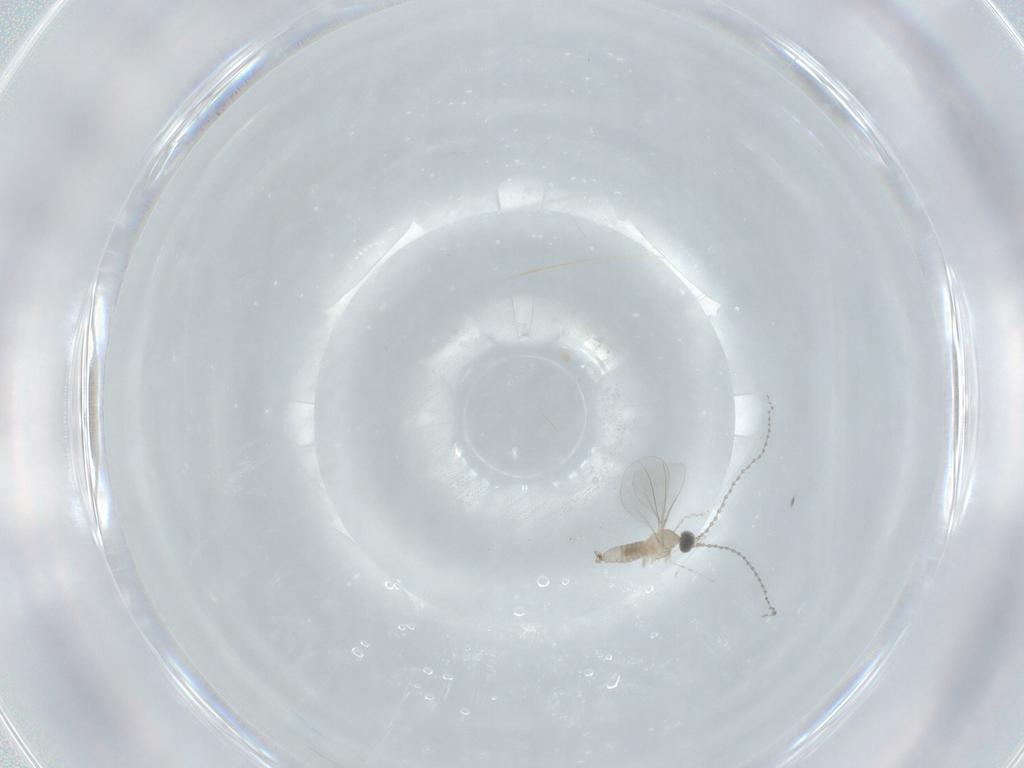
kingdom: Animalia
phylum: Arthropoda
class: Insecta
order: Diptera
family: Cecidomyiidae
